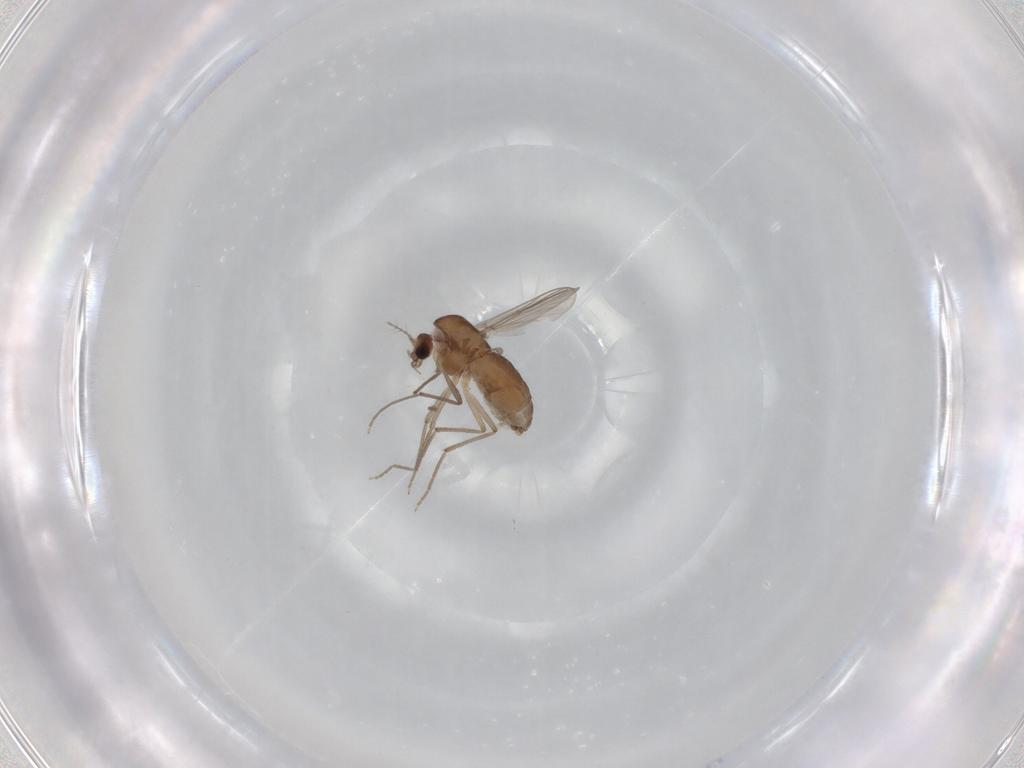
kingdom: Animalia
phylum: Arthropoda
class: Insecta
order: Diptera
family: Chironomidae
